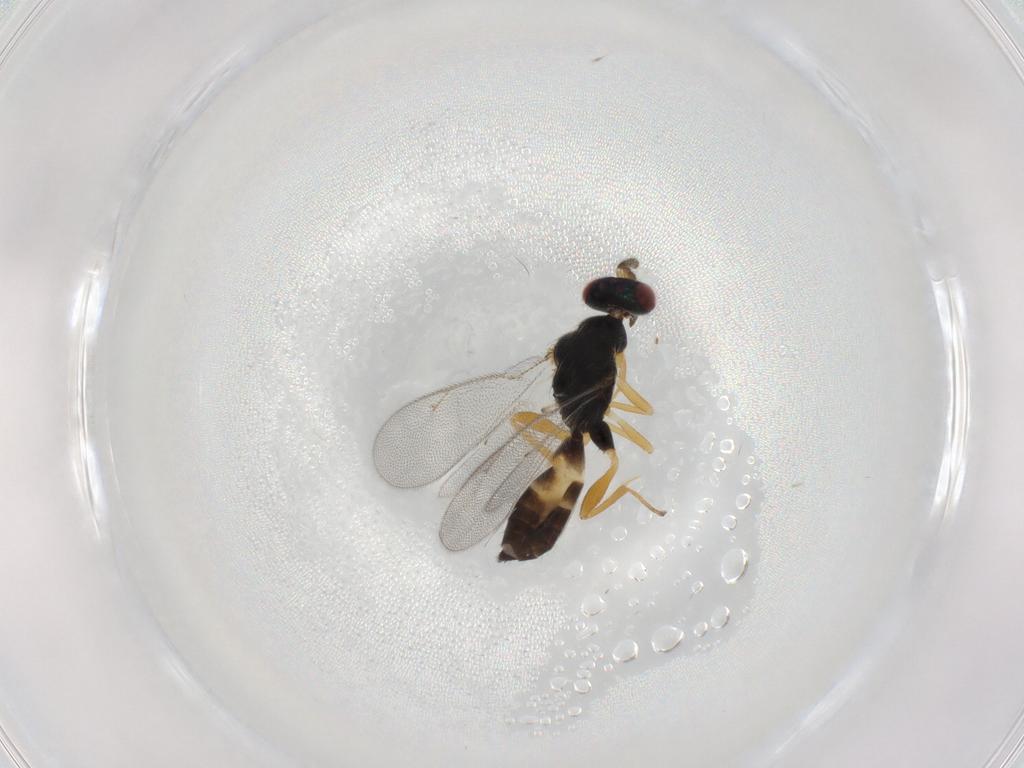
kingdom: Animalia
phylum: Arthropoda
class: Insecta
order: Hymenoptera
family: Eulophidae
